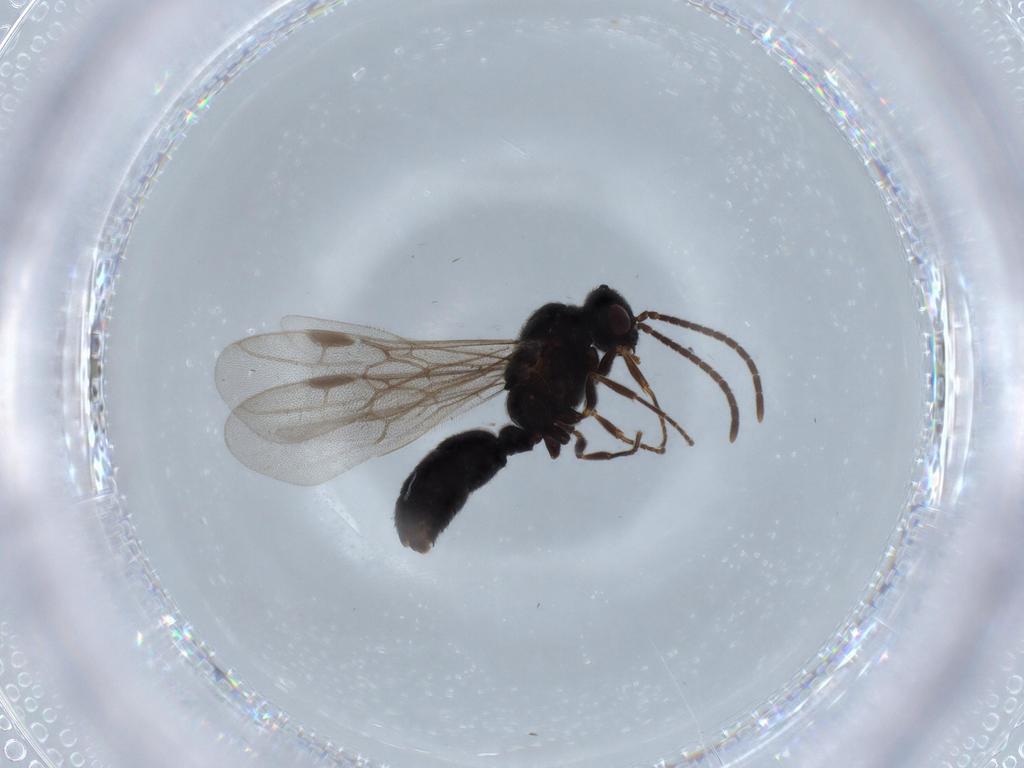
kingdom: Animalia
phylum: Arthropoda
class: Insecta
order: Hymenoptera
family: Formicidae
